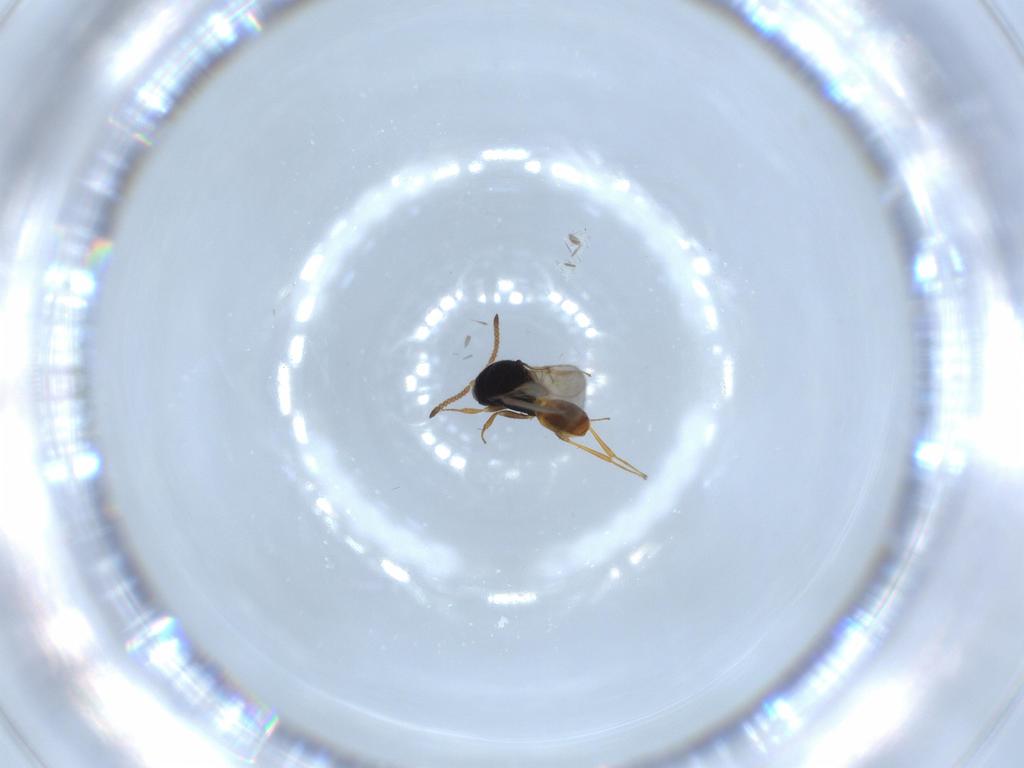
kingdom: Animalia
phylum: Arthropoda
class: Insecta
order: Hymenoptera
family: Scelionidae
